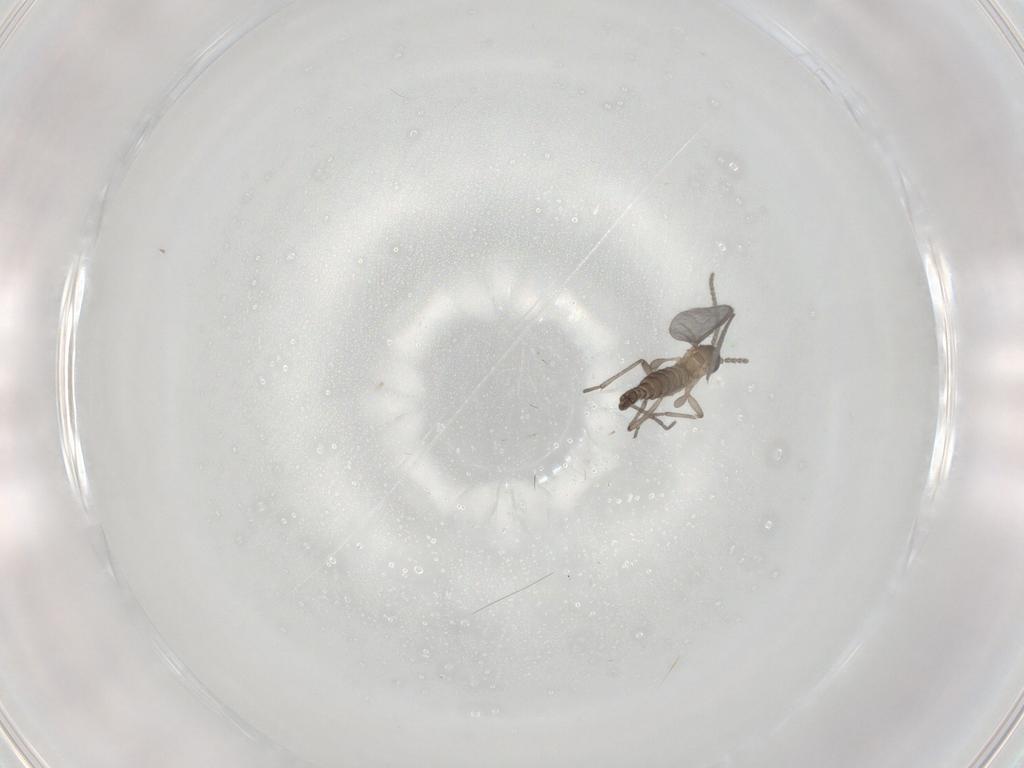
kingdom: Animalia
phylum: Arthropoda
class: Insecta
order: Diptera
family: Sciaridae
